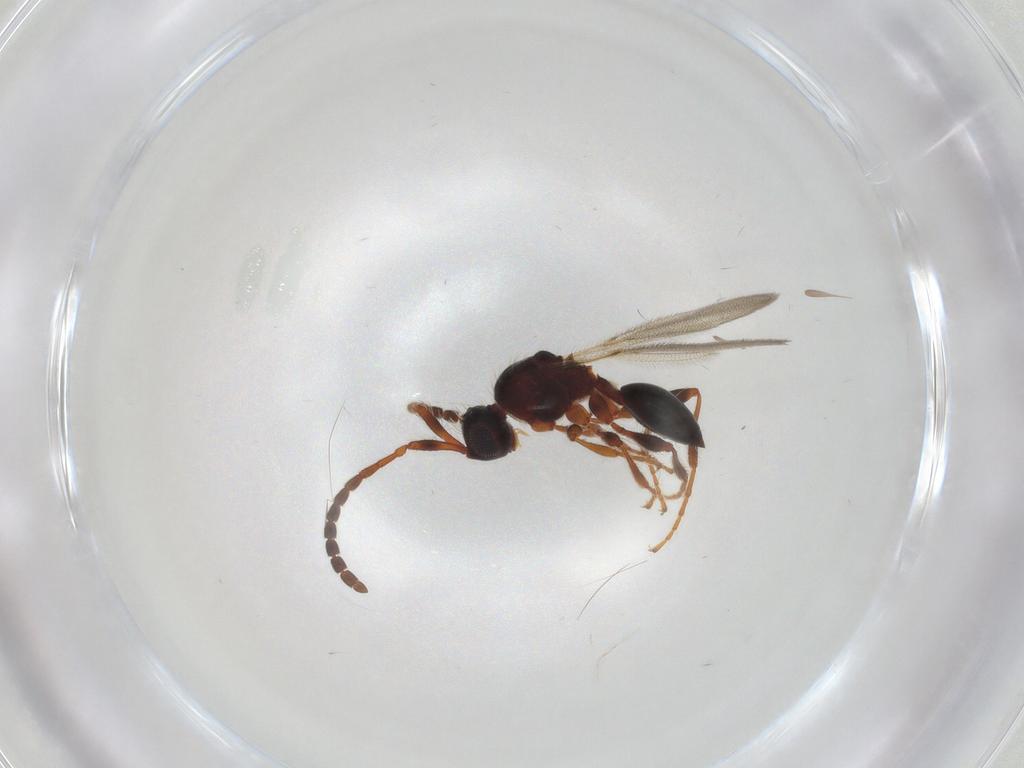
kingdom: Animalia
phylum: Arthropoda
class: Insecta
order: Hymenoptera
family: Diapriidae
